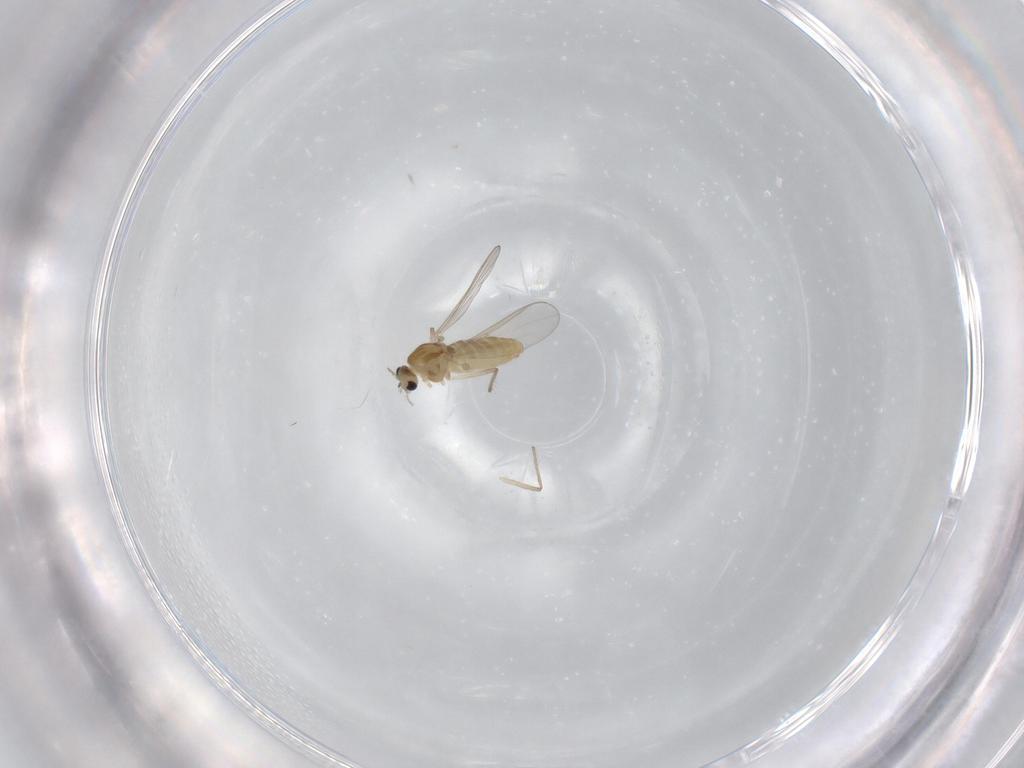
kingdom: Animalia
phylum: Arthropoda
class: Insecta
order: Diptera
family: Chironomidae
